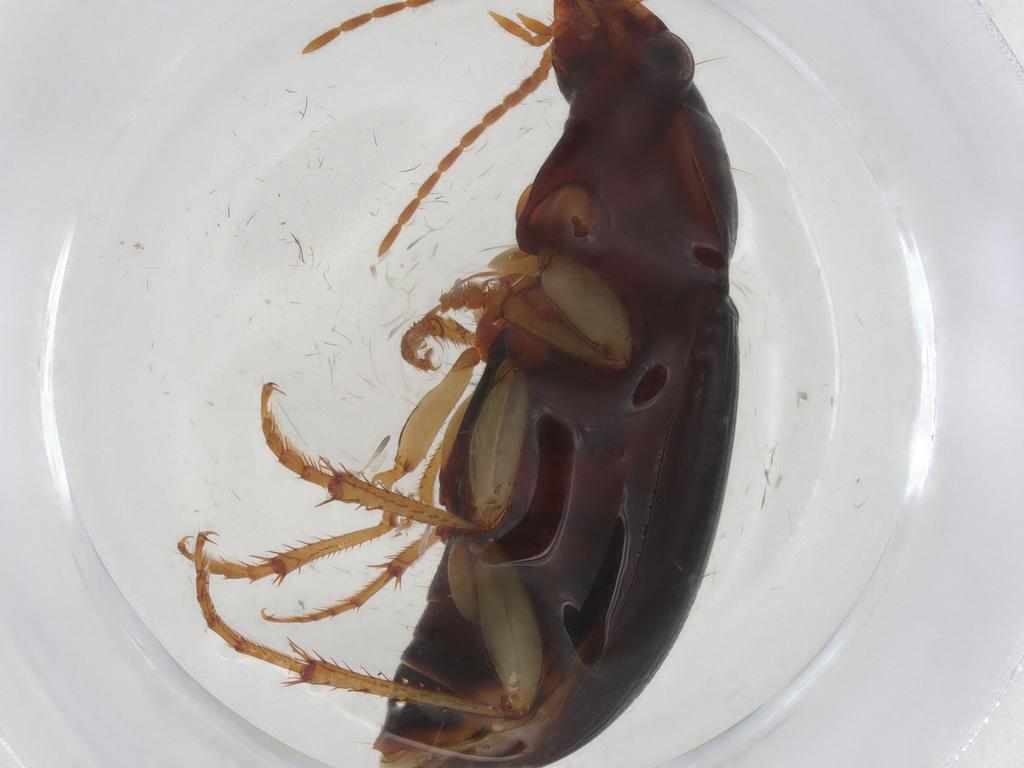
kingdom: Animalia
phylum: Arthropoda
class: Insecta
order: Coleoptera
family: Carabidae
